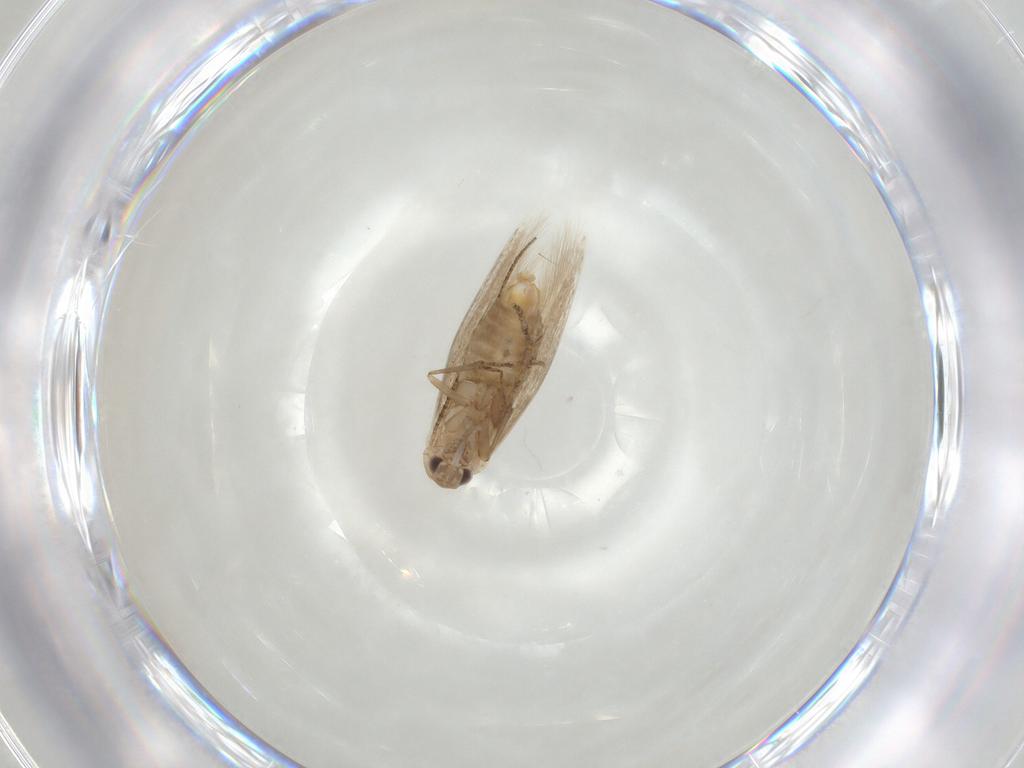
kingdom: Animalia
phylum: Arthropoda
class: Insecta
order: Lepidoptera
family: Bucculatricidae
